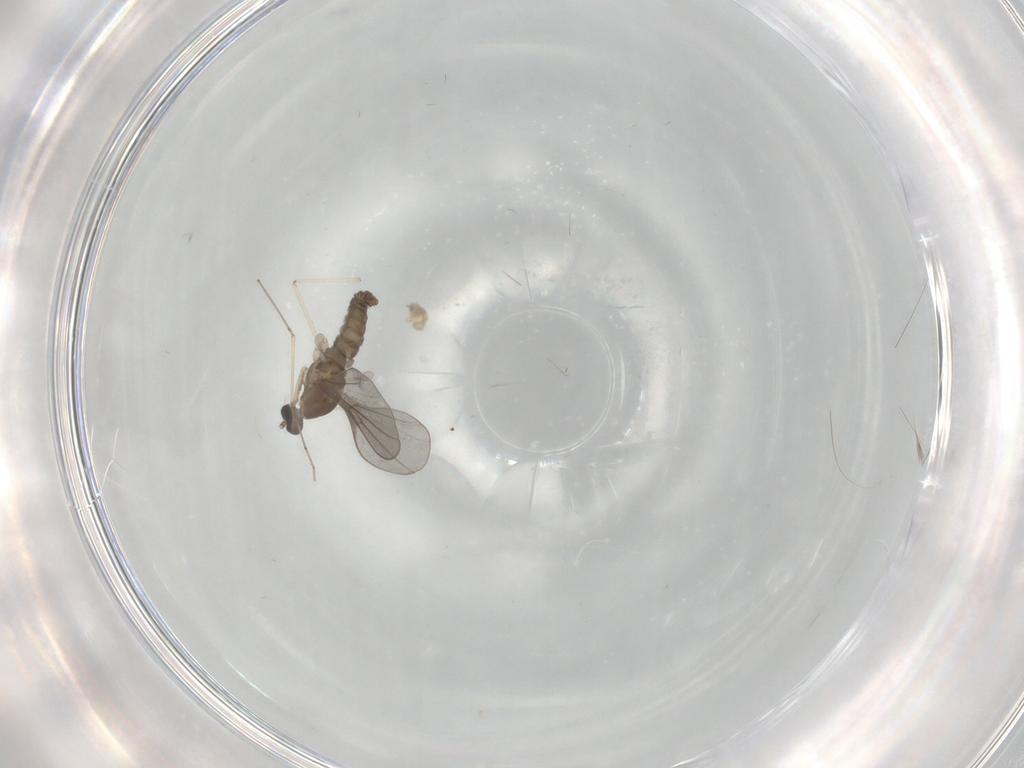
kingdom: Animalia
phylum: Arthropoda
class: Insecta
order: Diptera
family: Cecidomyiidae
